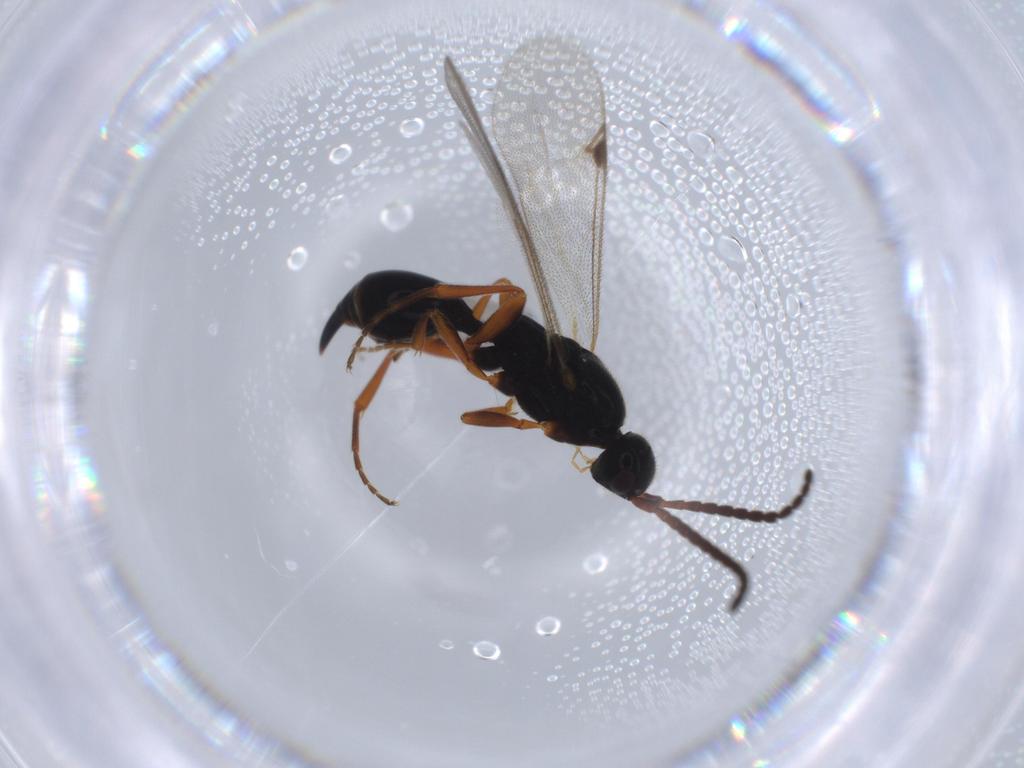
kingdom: Animalia
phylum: Arthropoda
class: Insecta
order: Hymenoptera
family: Proctotrupidae
